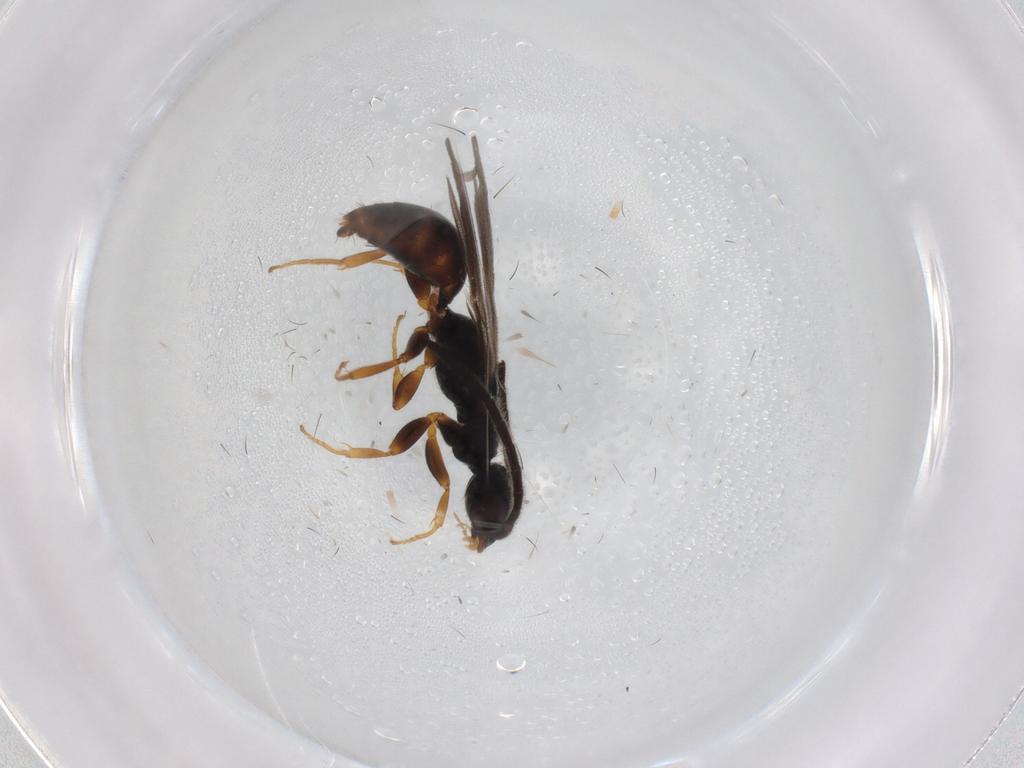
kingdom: Animalia
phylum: Arthropoda
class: Insecta
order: Hymenoptera
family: Bethylidae
